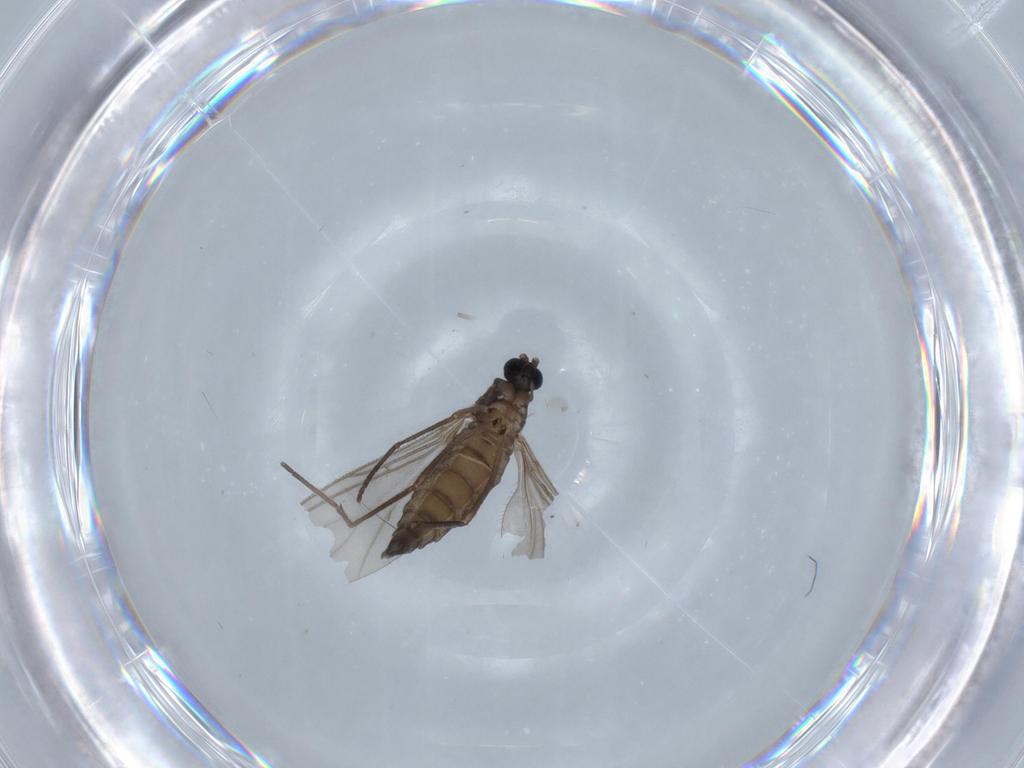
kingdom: Animalia
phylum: Arthropoda
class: Insecta
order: Diptera
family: Sciaridae
